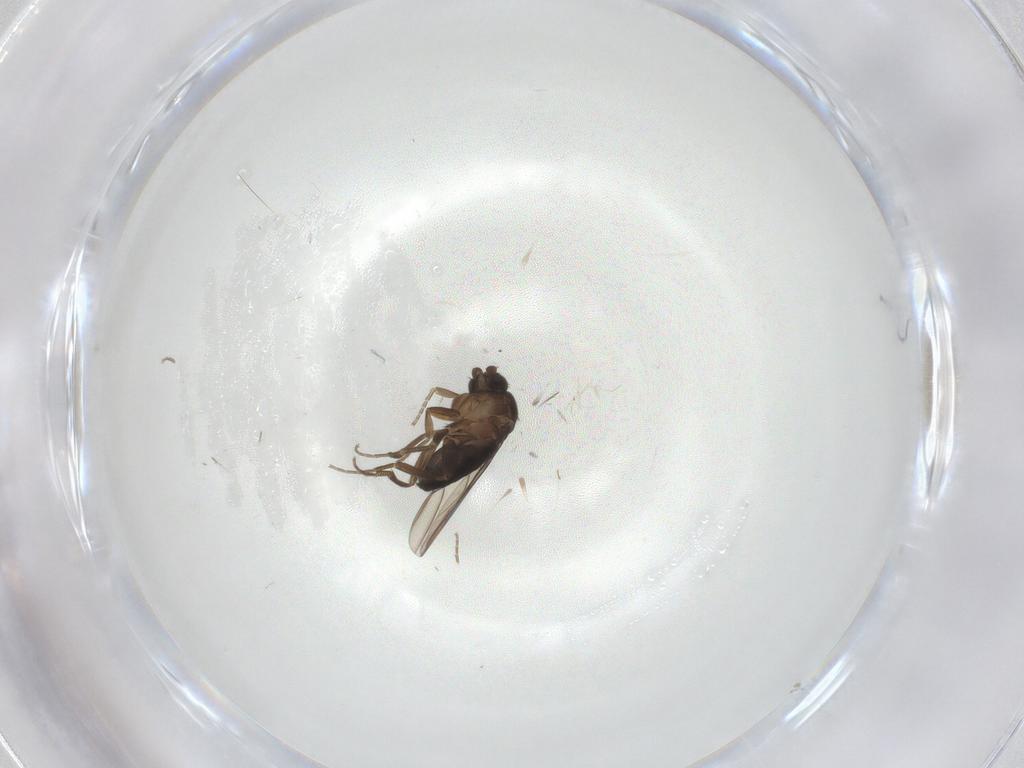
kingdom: Animalia
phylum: Arthropoda
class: Insecta
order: Diptera
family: Phoridae
